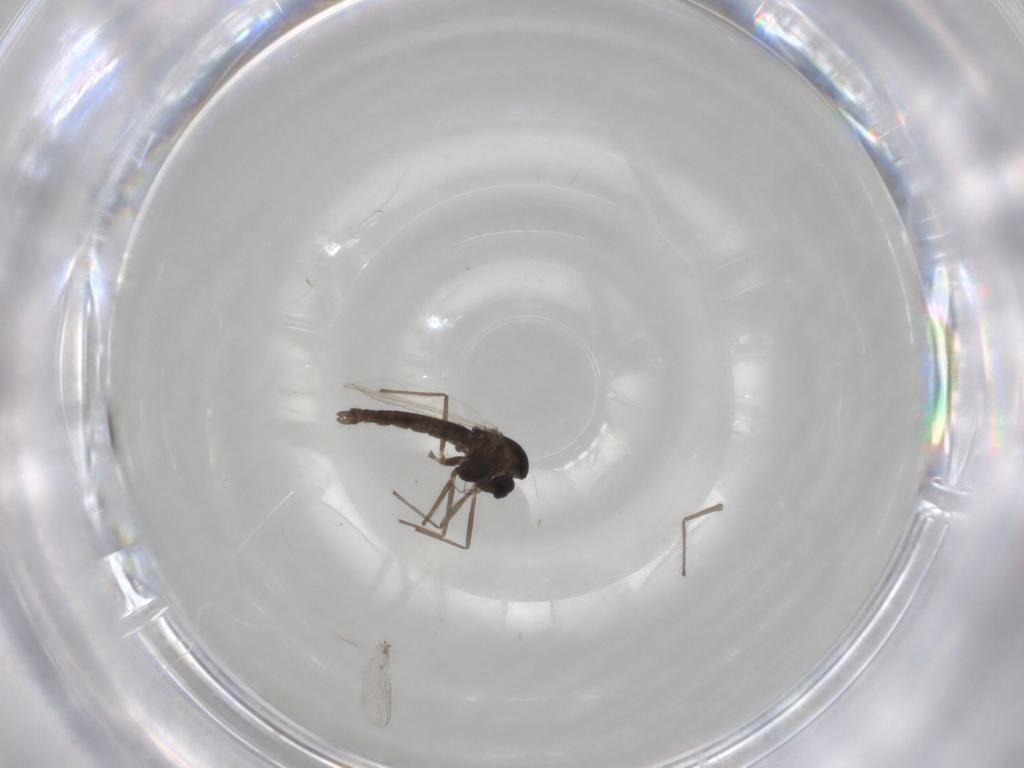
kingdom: Animalia
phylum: Arthropoda
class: Insecta
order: Diptera
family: Chironomidae
